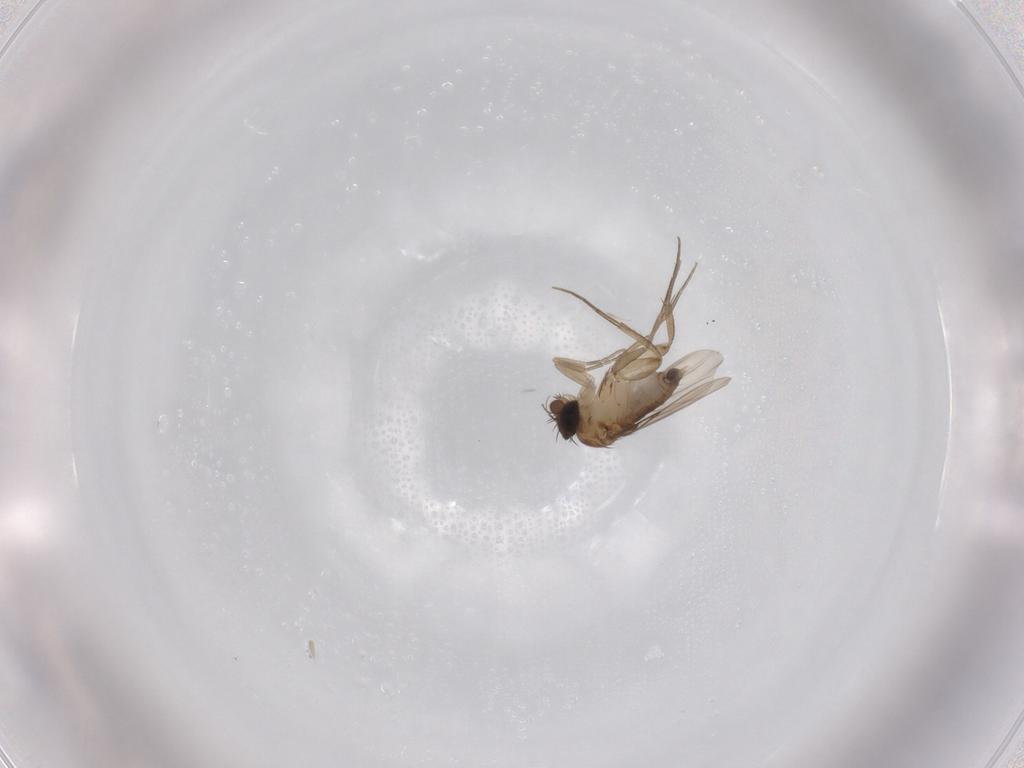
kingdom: Animalia
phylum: Arthropoda
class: Insecta
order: Diptera
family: Phoridae
